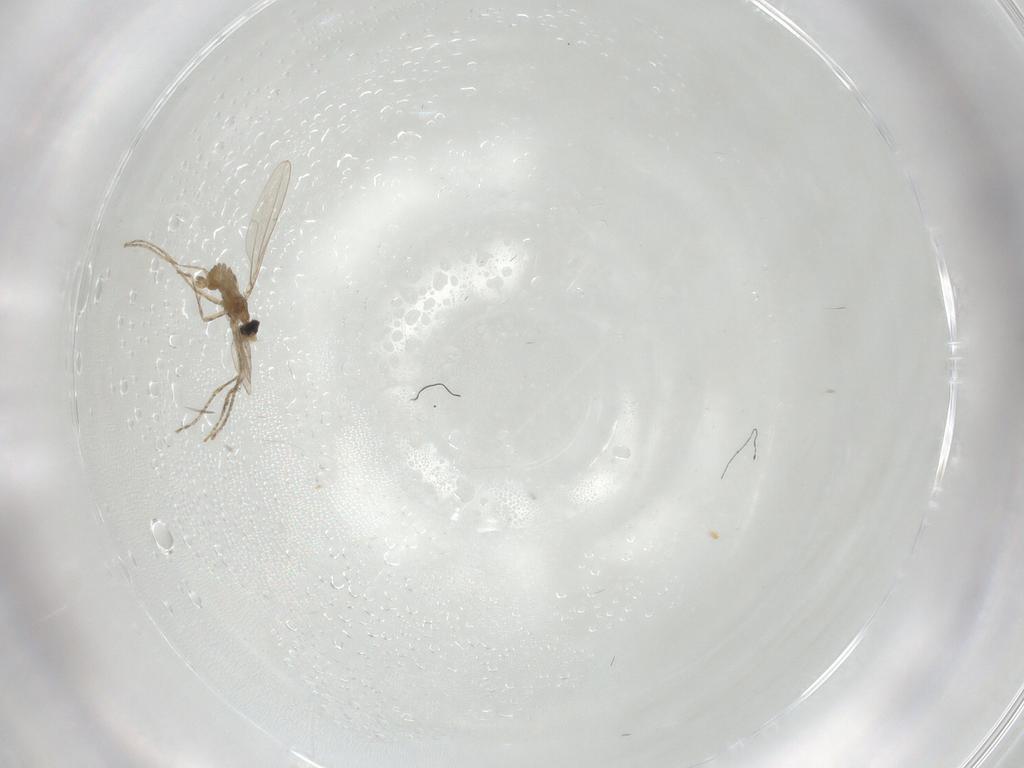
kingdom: Animalia
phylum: Arthropoda
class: Insecta
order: Diptera
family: Cecidomyiidae
